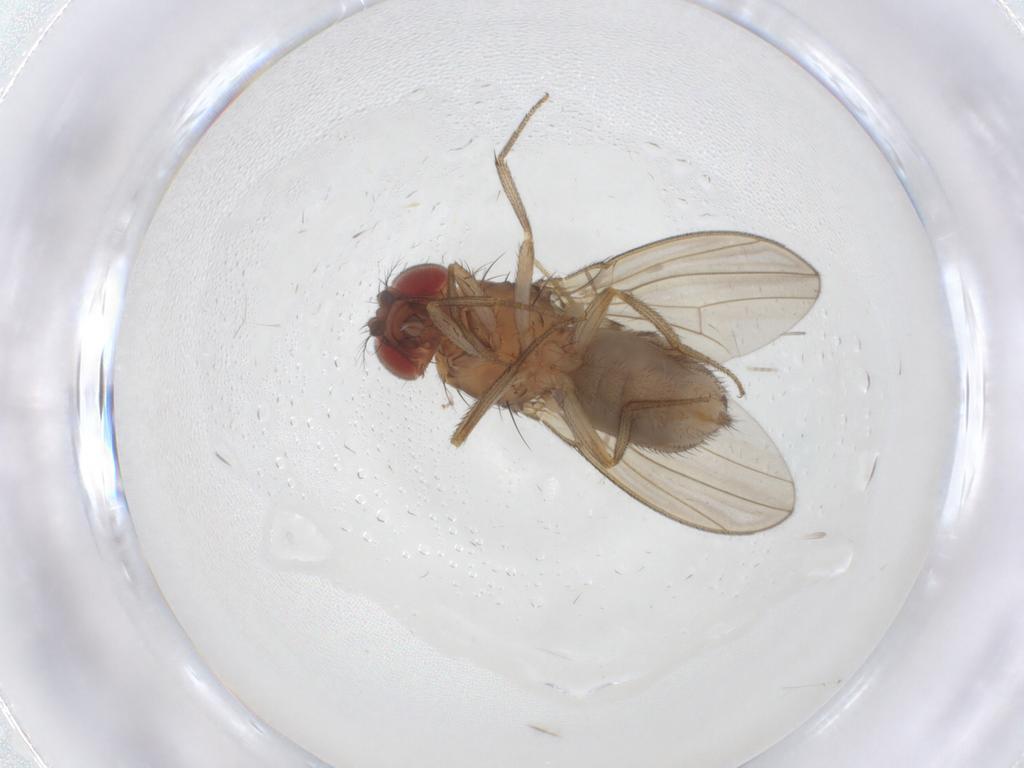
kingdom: Animalia
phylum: Arthropoda
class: Insecta
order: Diptera
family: Drosophilidae
